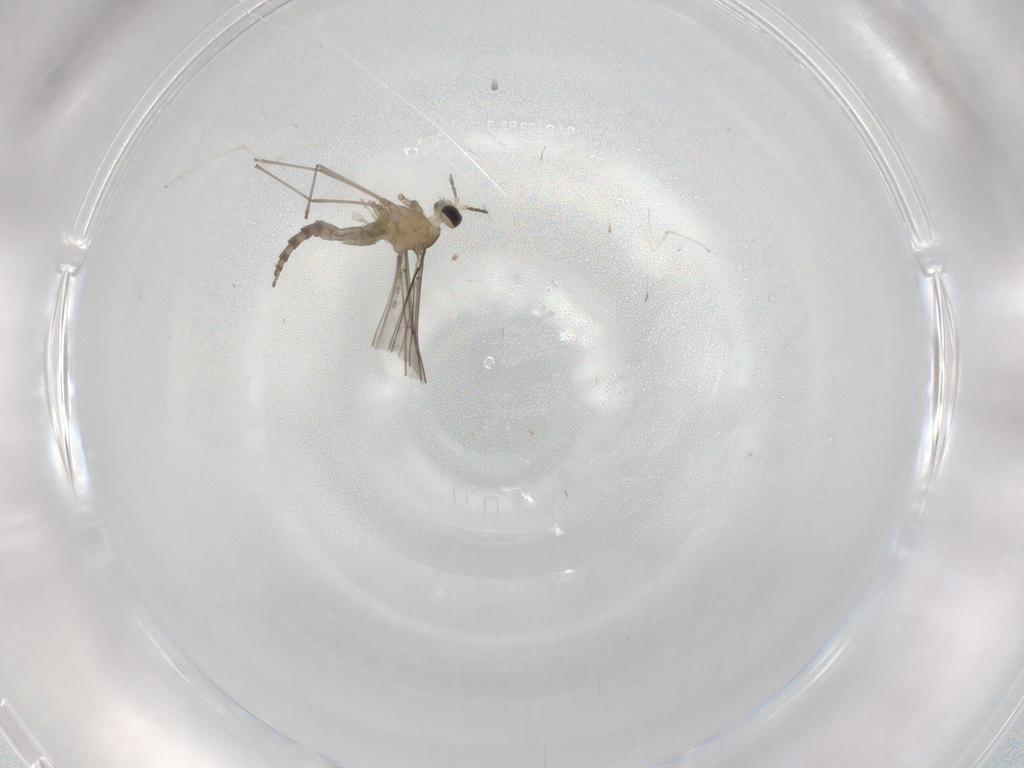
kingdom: Animalia
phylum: Arthropoda
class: Insecta
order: Diptera
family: Cecidomyiidae
